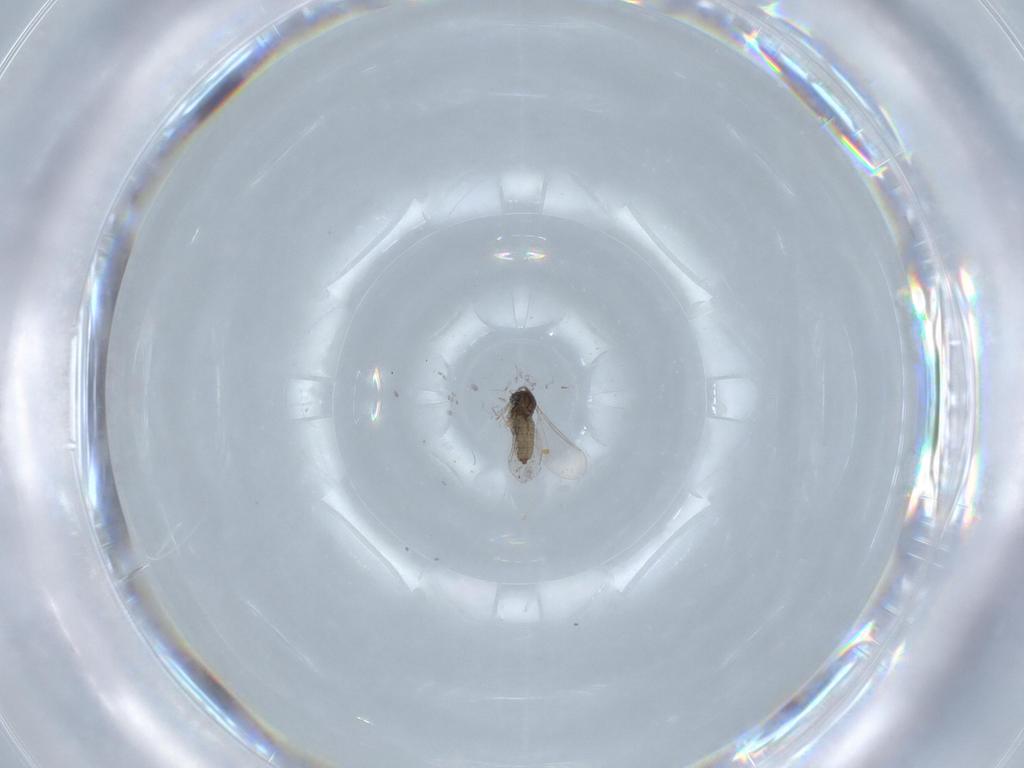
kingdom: Animalia
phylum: Arthropoda
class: Insecta
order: Diptera
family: Cecidomyiidae
